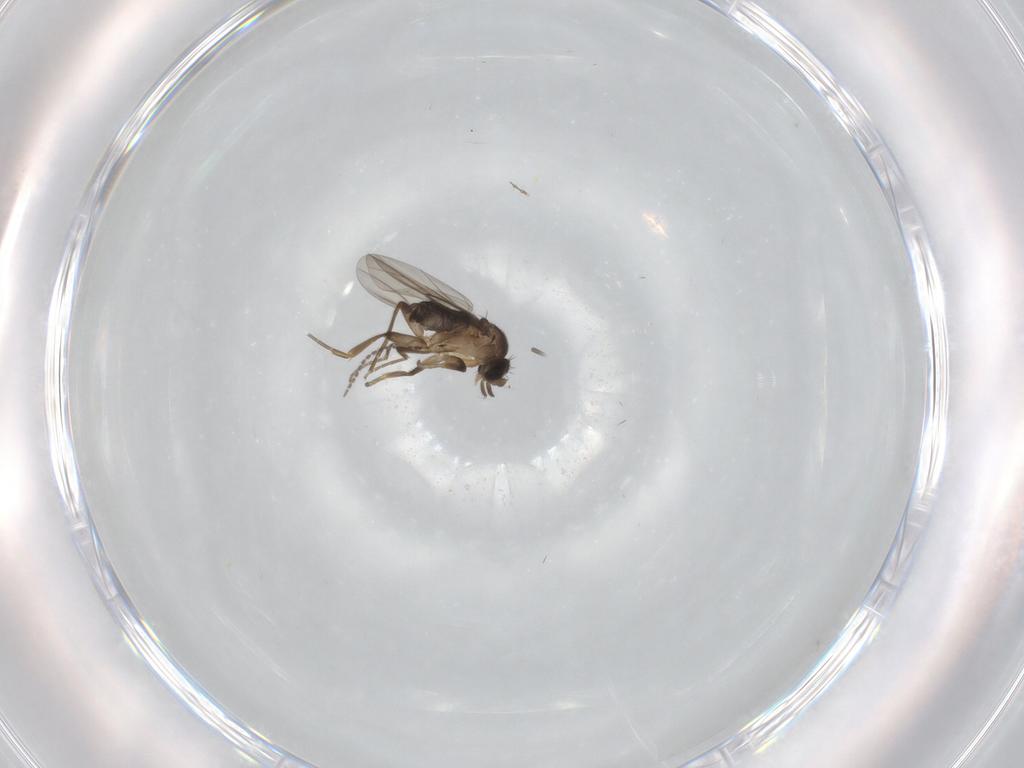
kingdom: Animalia
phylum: Arthropoda
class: Insecta
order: Diptera
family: Phoridae
